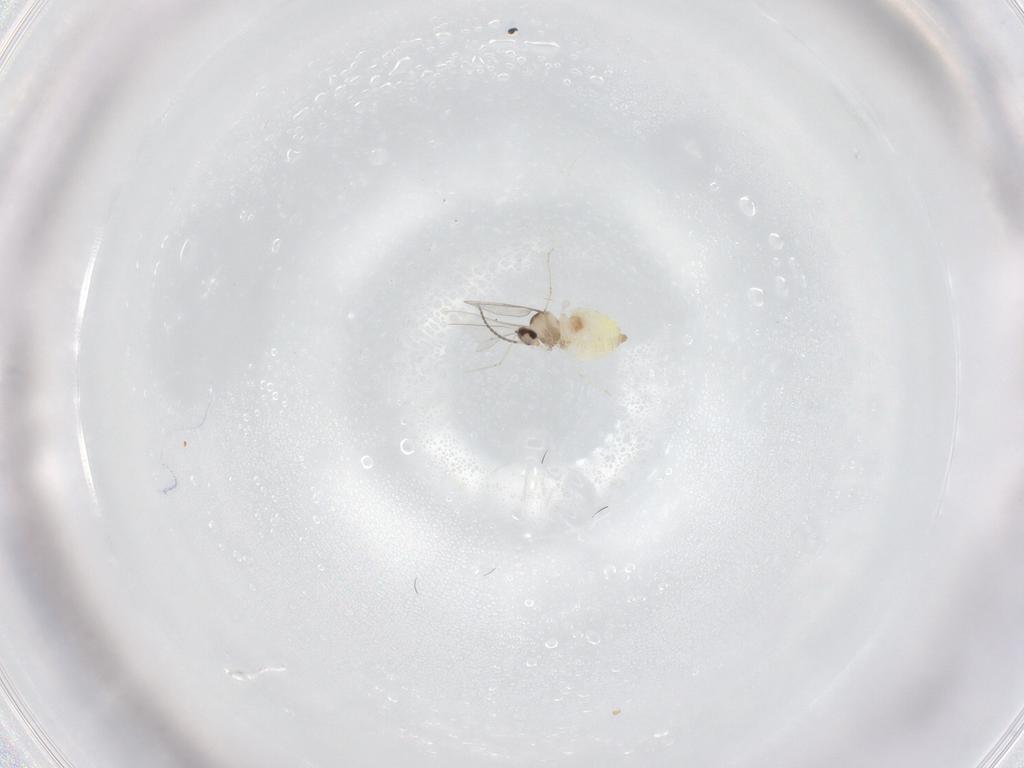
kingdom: Animalia
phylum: Arthropoda
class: Insecta
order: Diptera
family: Cecidomyiidae
